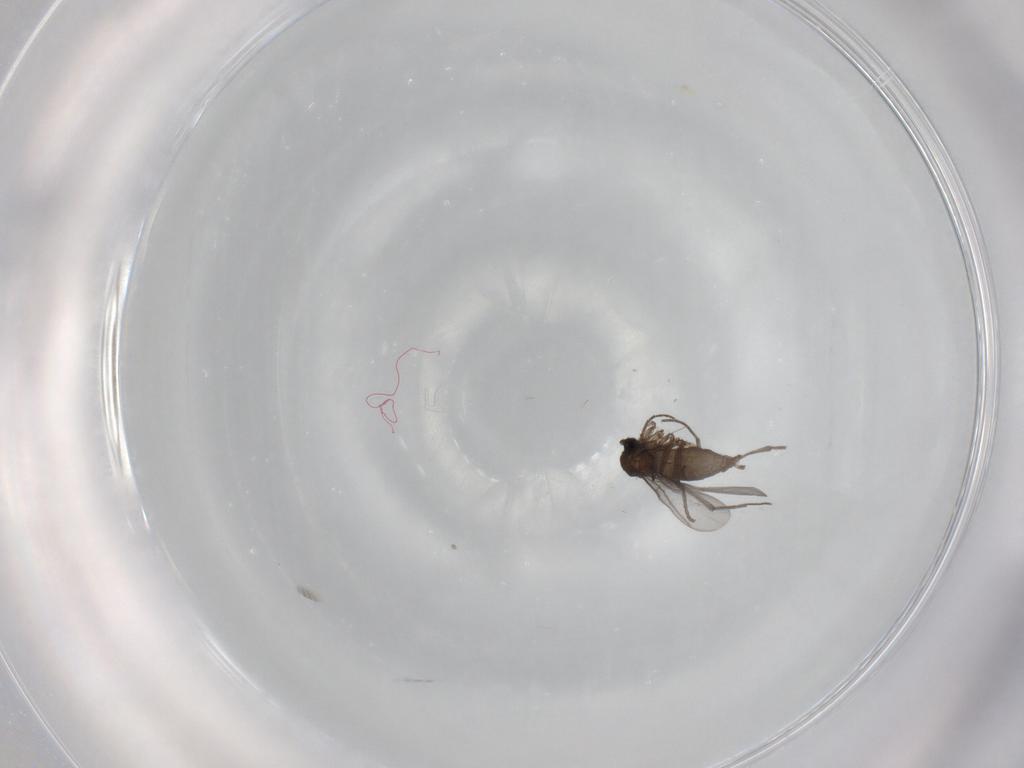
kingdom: Animalia
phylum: Arthropoda
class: Insecta
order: Diptera
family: Sciaridae
